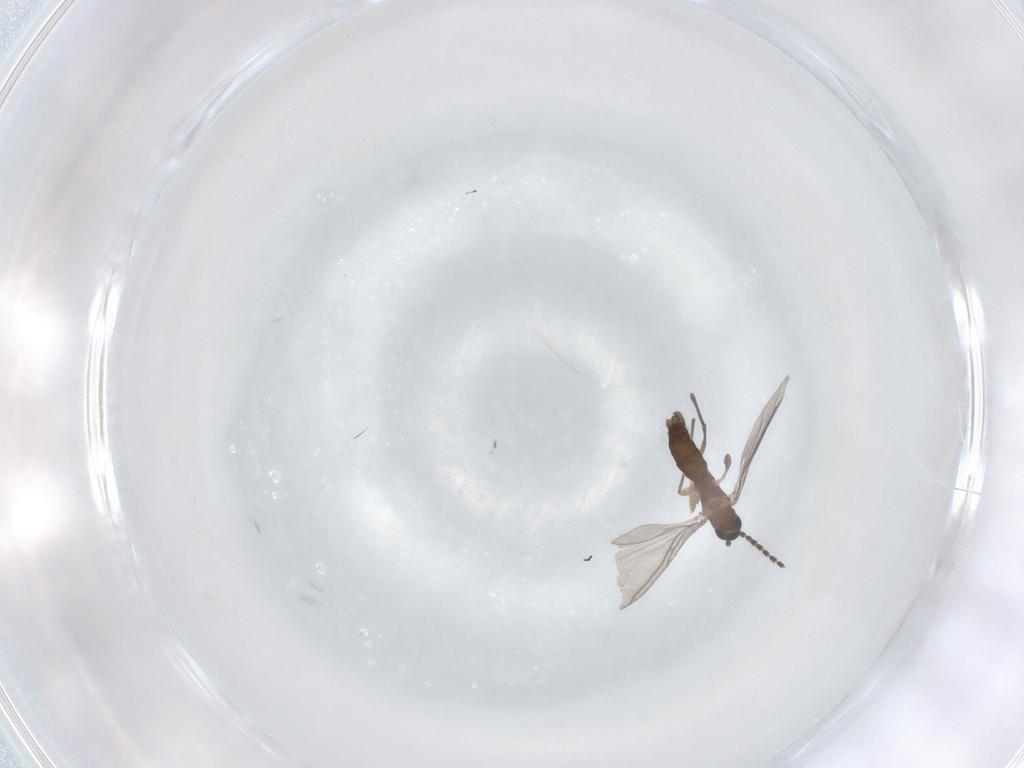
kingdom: Animalia
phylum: Arthropoda
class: Insecta
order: Diptera
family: Sciaridae
